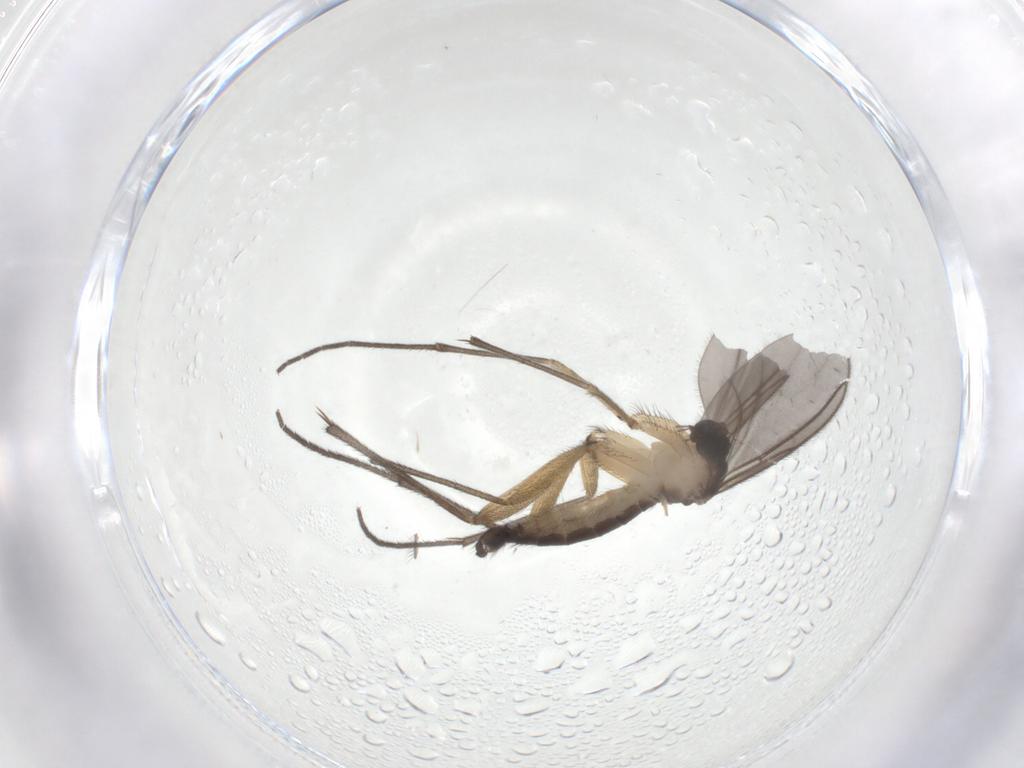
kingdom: Animalia
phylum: Arthropoda
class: Insecta
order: Diptera
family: Sciaridae
